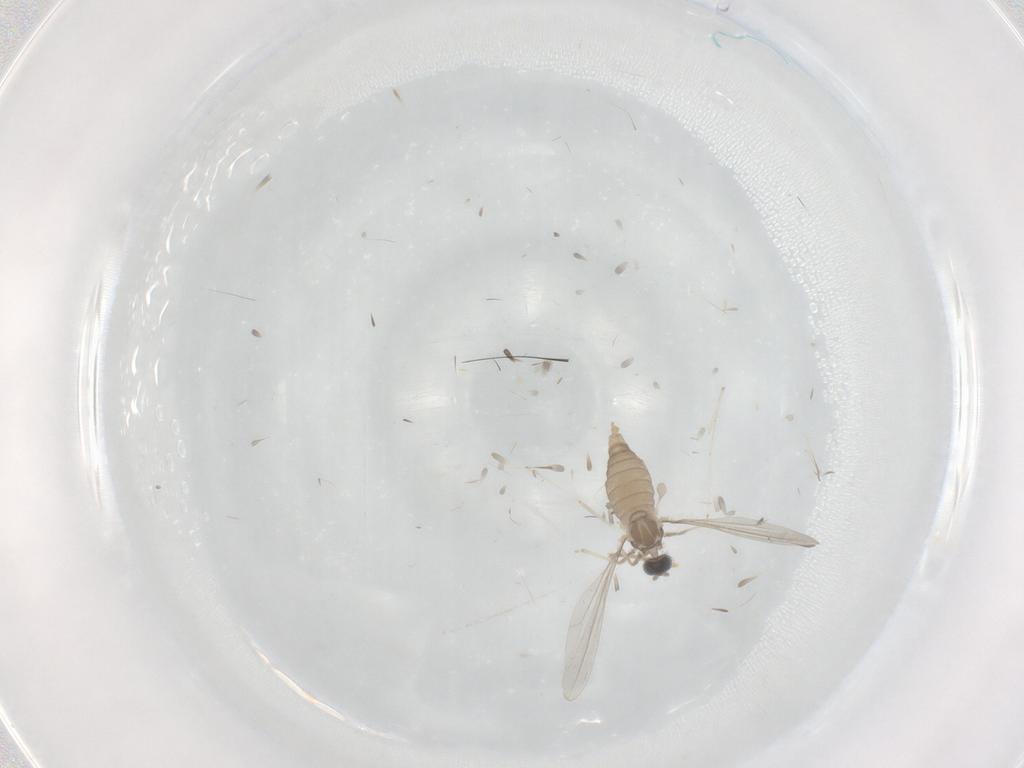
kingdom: Animalia
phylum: Arthropoda
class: Insecta
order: Diptera
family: Cecidomyiidae
